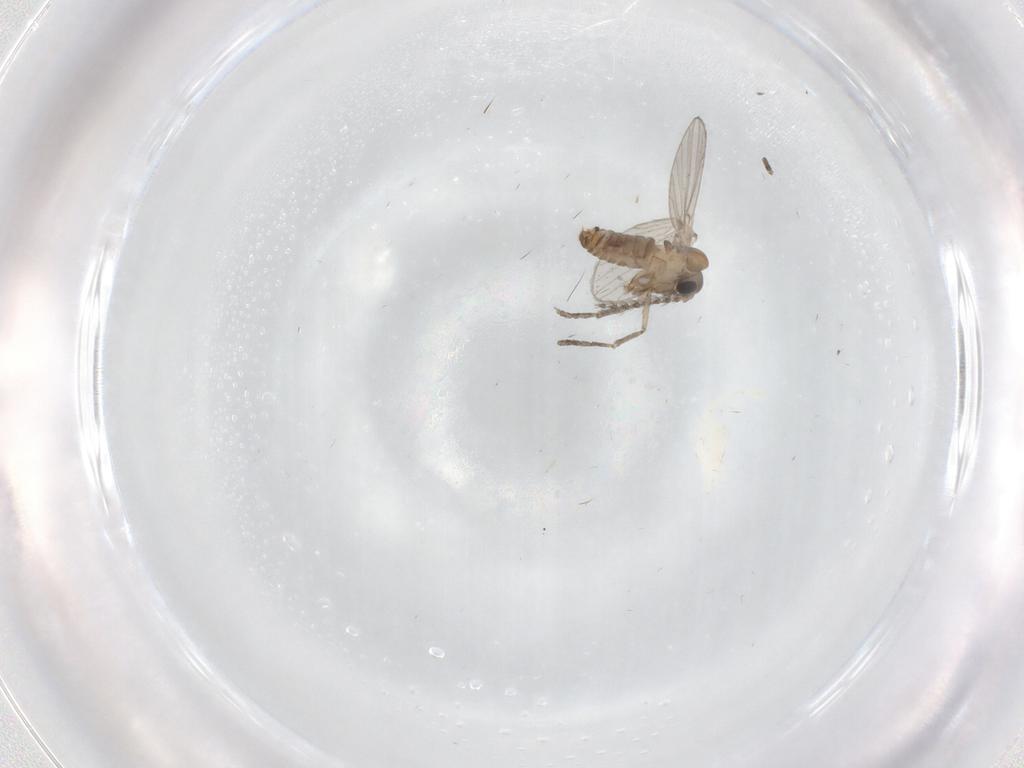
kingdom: Animalia
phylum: Arthropoda
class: Insecta
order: Diptera
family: Psychodidae
